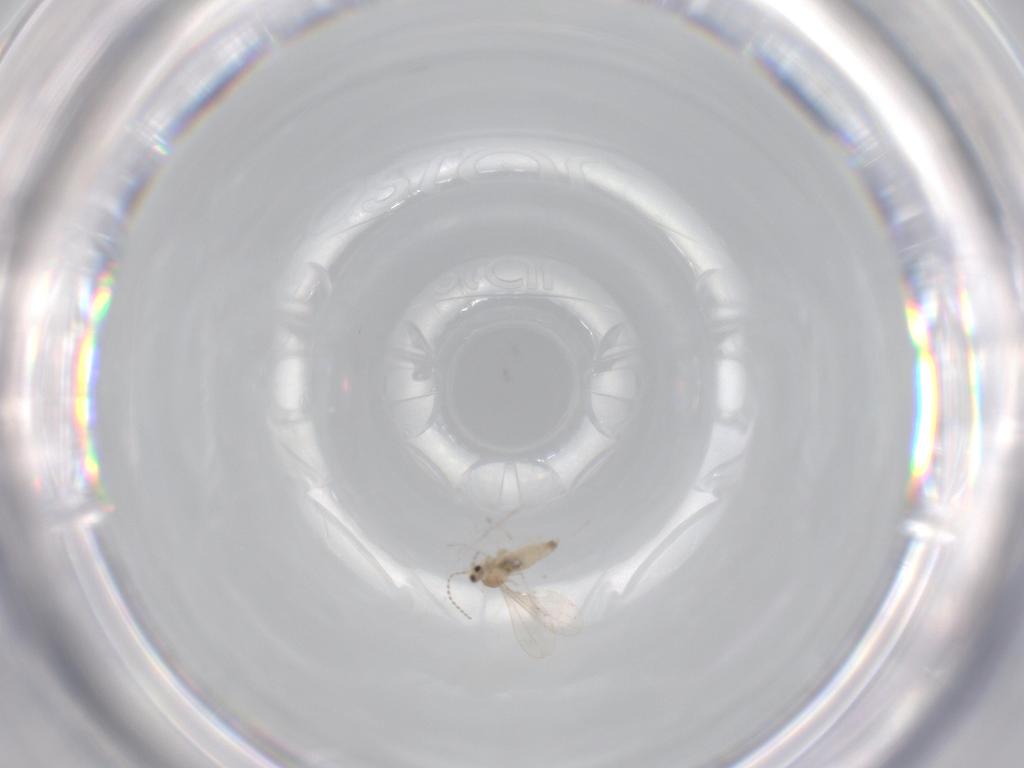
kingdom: Animalia
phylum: Arthropoda
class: Insecta
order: Diptera
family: Cecidomyiidae
